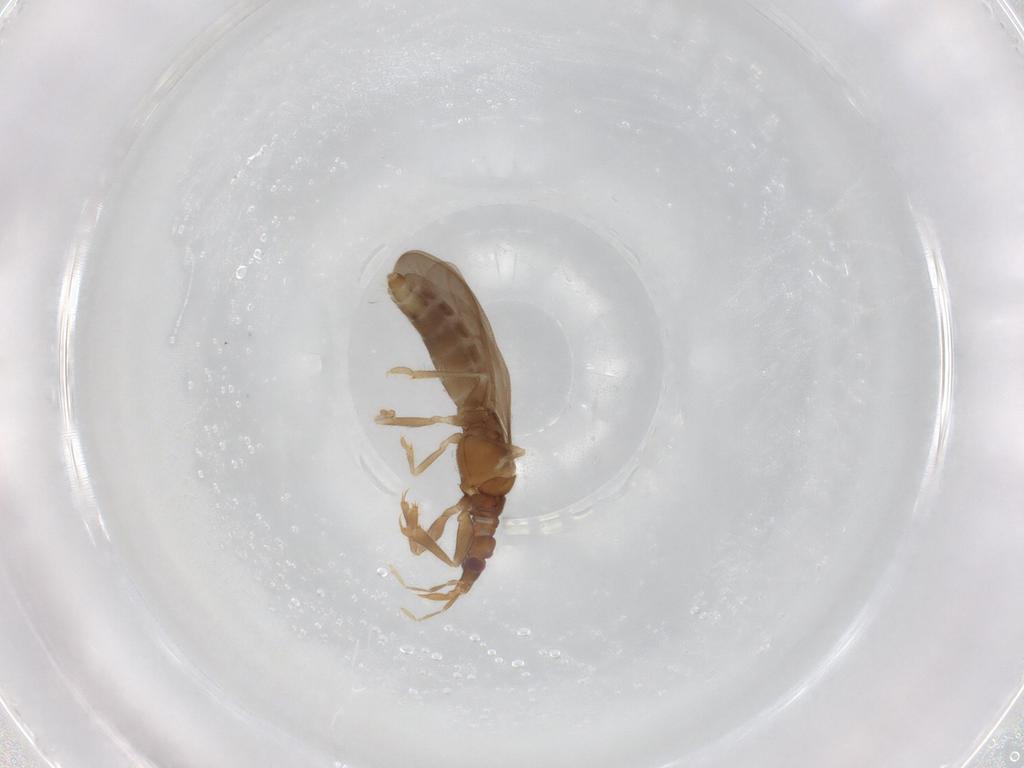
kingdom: Animalia
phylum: Arthropoda
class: Insecta
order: Hemiptera
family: Enicocephalidae
